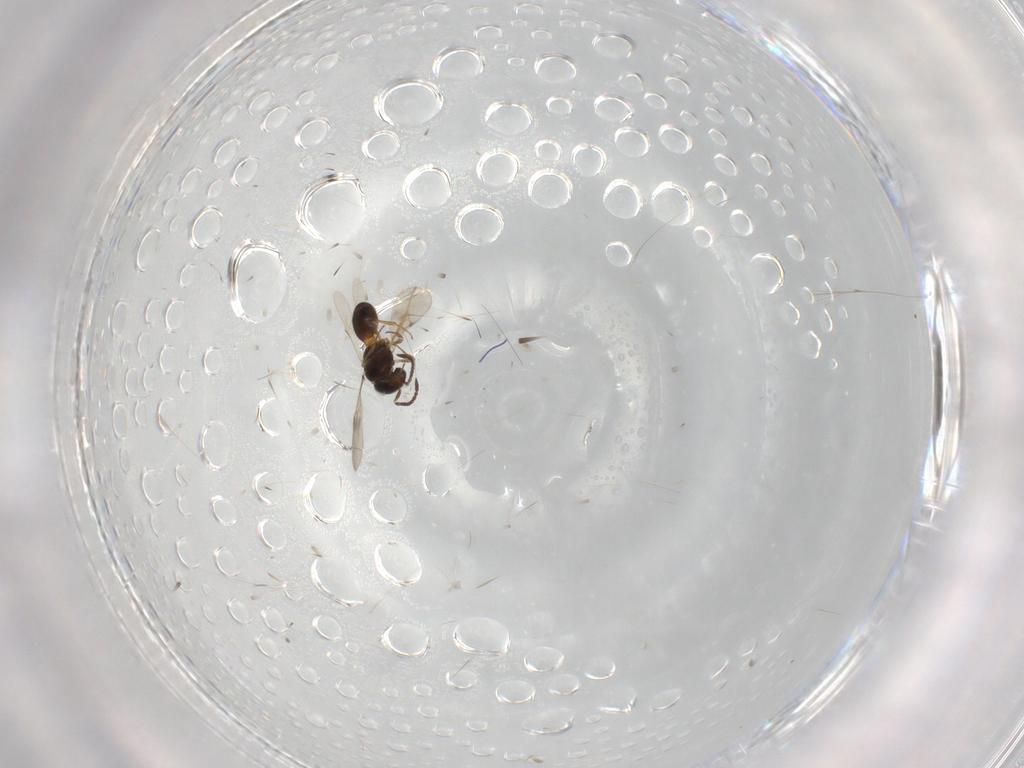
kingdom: Animalia
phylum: Arthropoda
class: Insecta
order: Hymenoptera
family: Scelionidae
